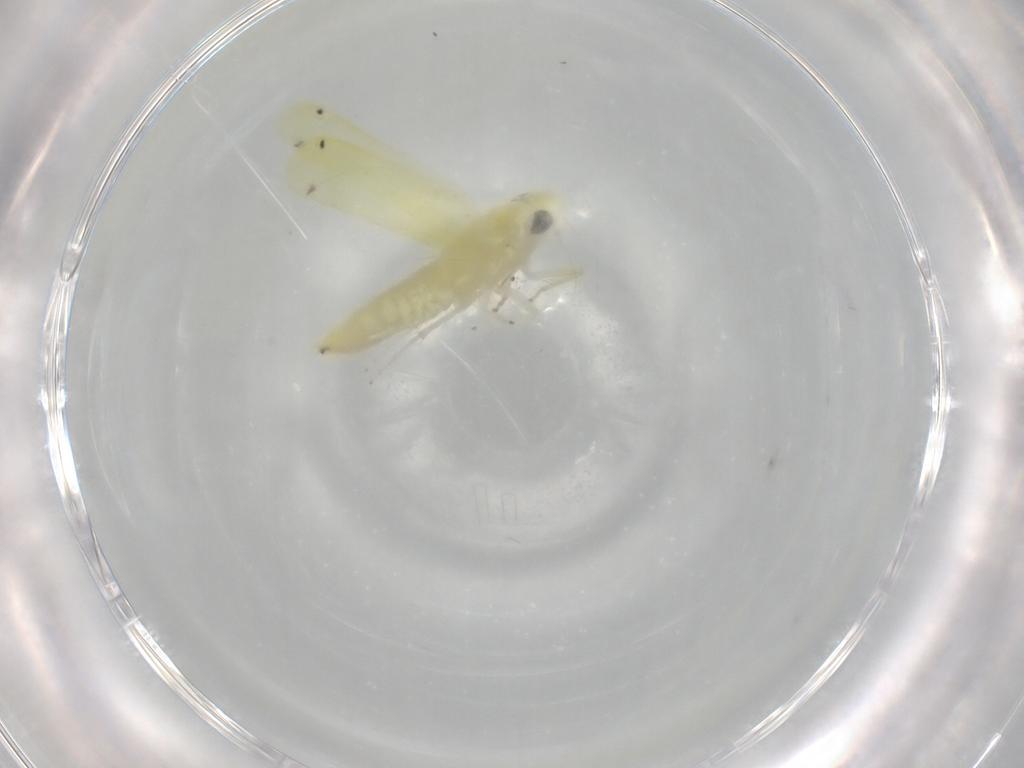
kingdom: Animalia
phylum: Arthropoda
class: Insecta
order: Hemiptera
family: Cicadellidae
